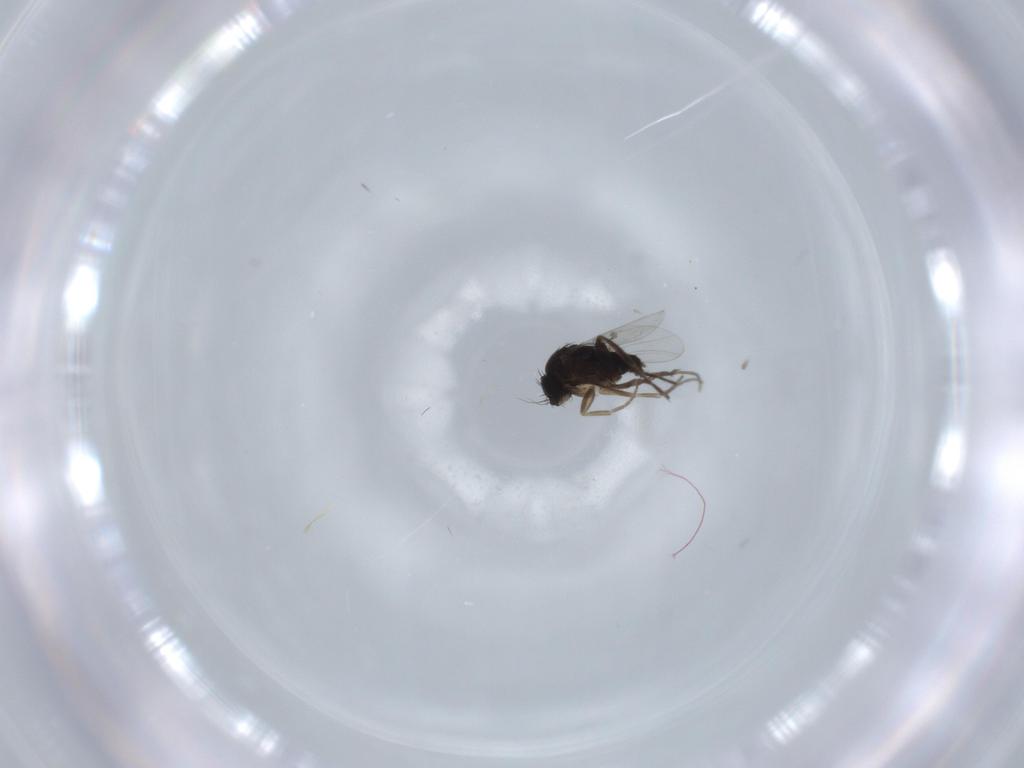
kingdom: Animalia
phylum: Arthropoda
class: Insecta
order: Diptera
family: Phoridae
